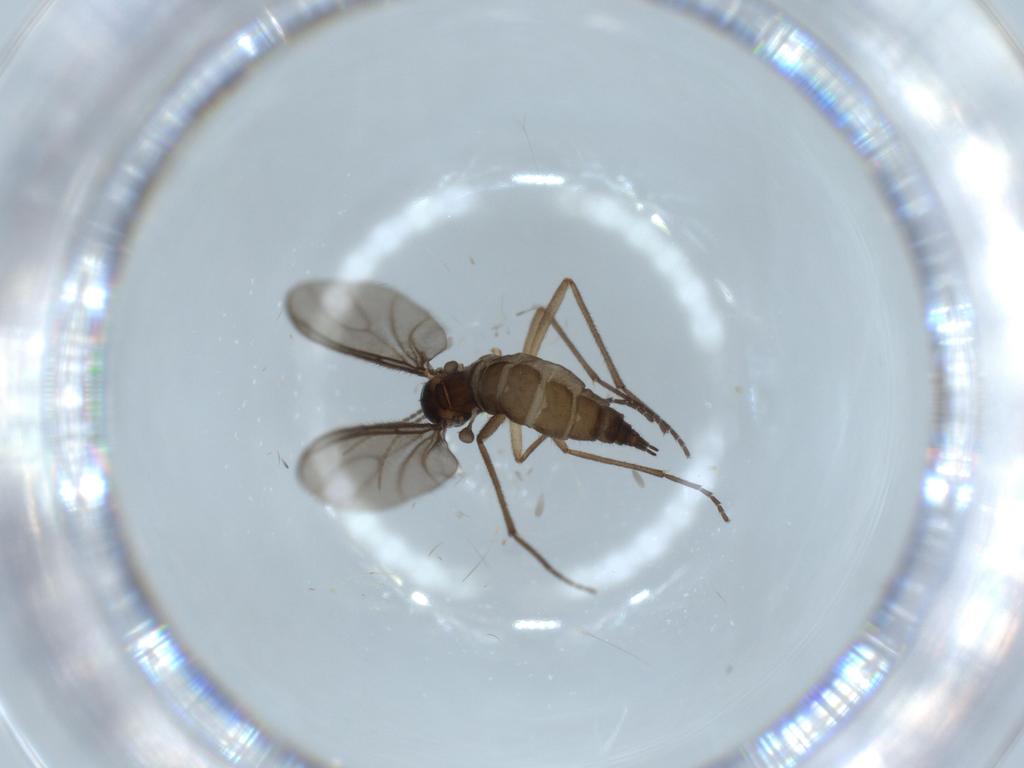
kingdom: Animalia
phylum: Arthropoda
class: Insecta
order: Diptera
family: Sciaridae
